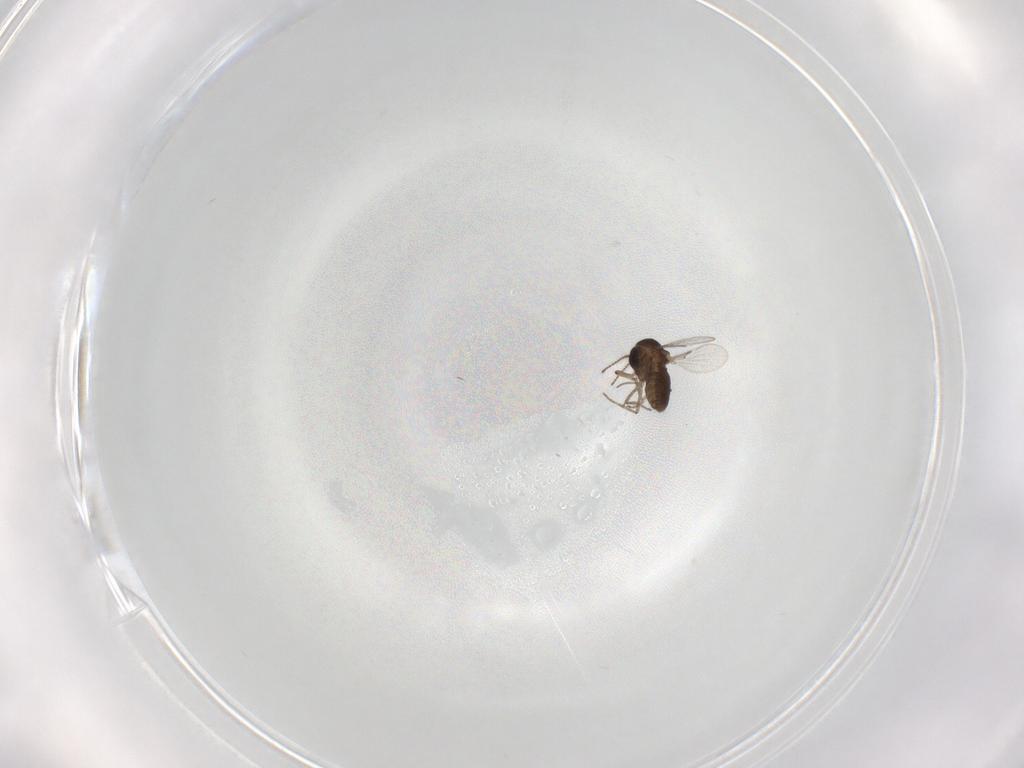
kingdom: Animalia
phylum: Arthropoda
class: Insecta
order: Diptera
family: Ceratopogonidae
